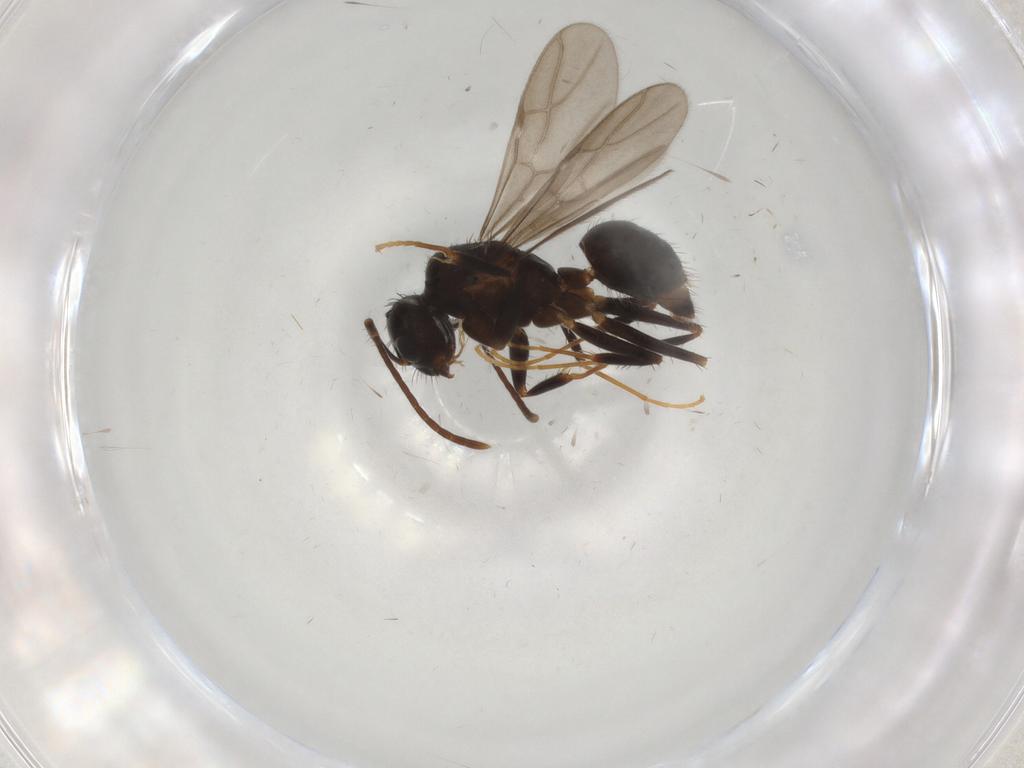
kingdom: Animalia
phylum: Arthropoda
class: Insecta
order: Hymenoptera
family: Formicidae
